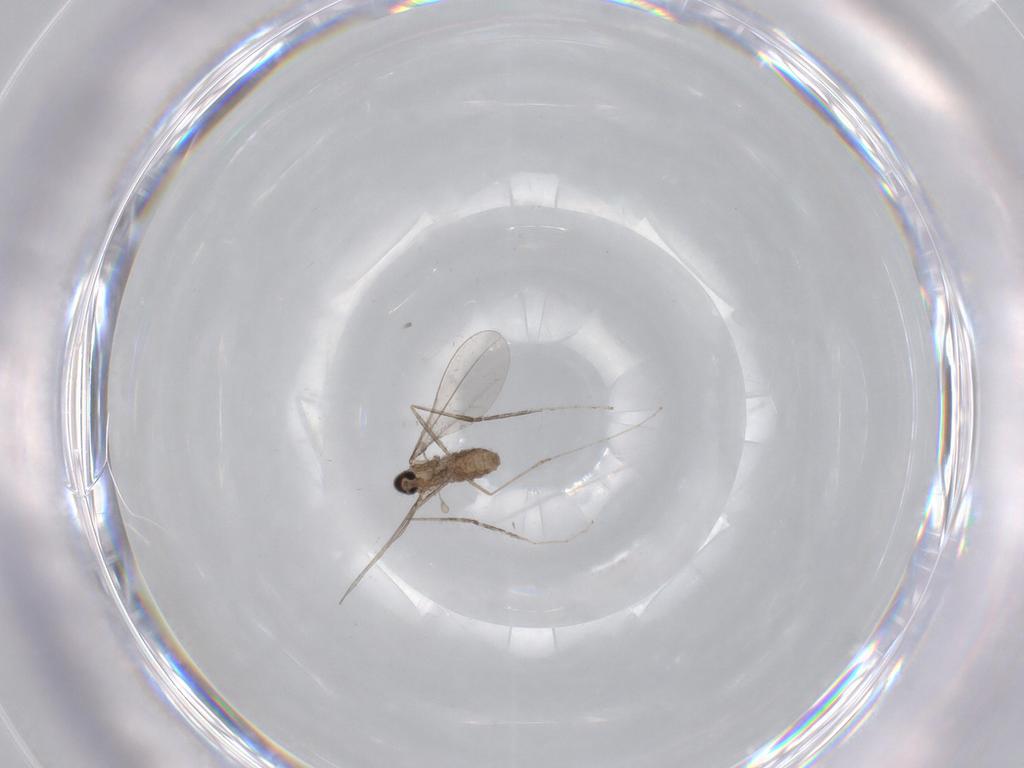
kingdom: Animalia
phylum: Arthropoda
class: Insecta
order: Diptera
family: Cecidomyiidae
